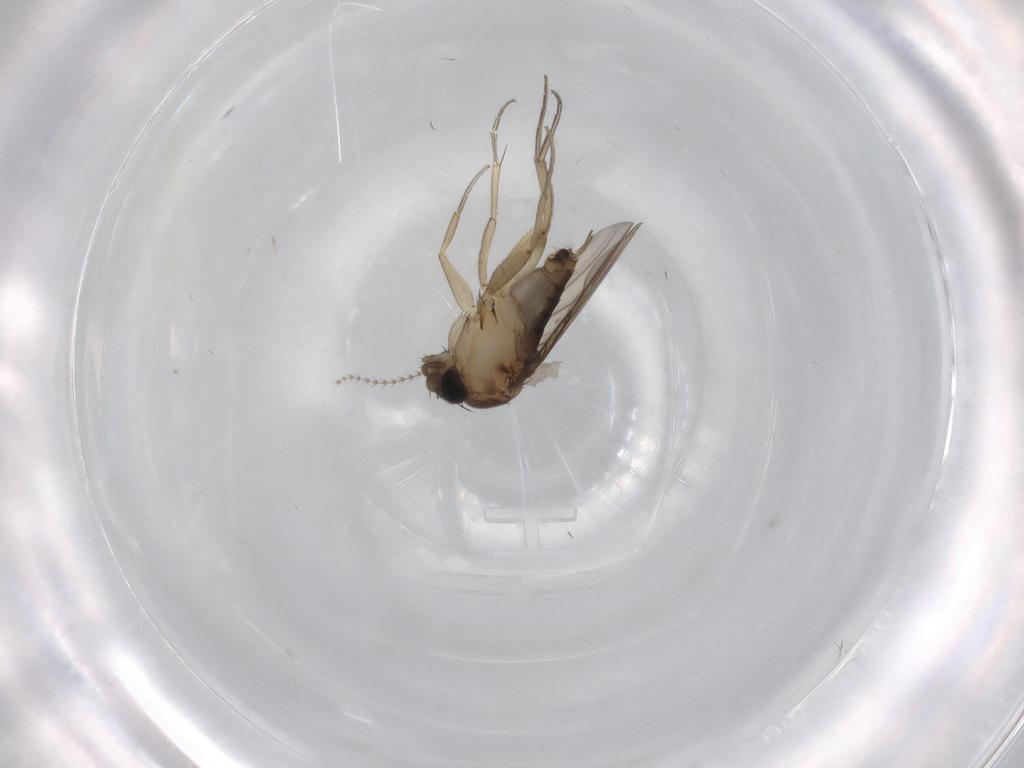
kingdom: Animalia
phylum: Arthropoda
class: Insecta
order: Diptera
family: Cecidomyiidae
